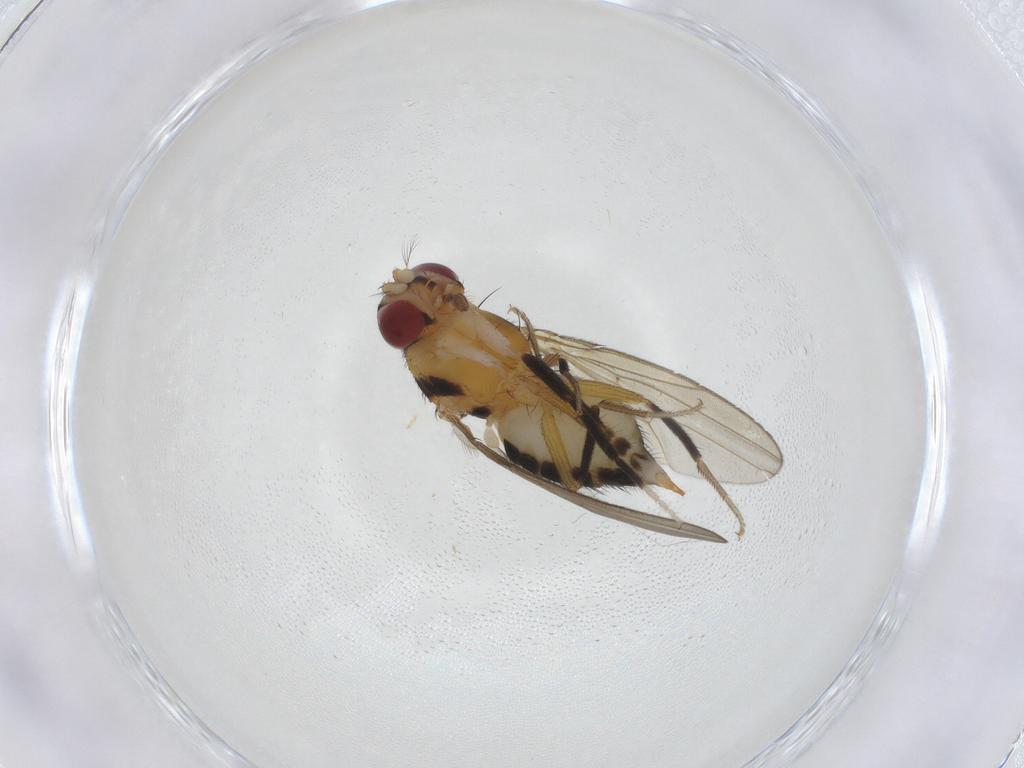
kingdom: Animalia
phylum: Arthropoda
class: Insecta
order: Diptera
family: Drosophilidae
